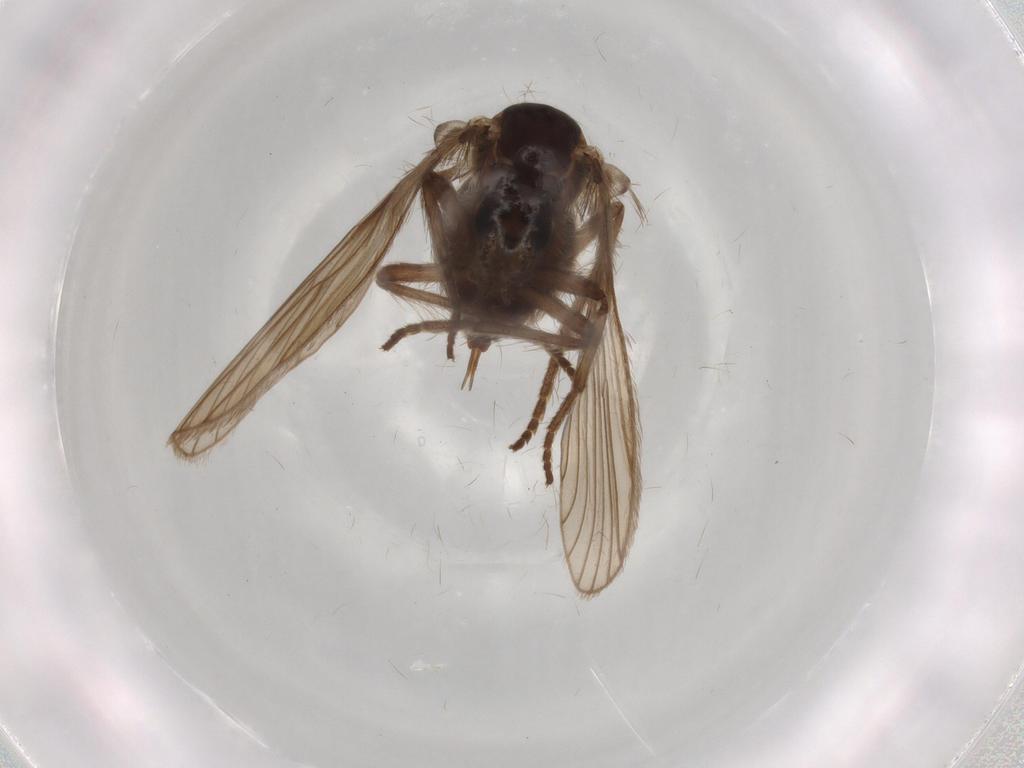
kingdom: Animalia
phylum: Arthropoda
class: Insecta
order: Diptera
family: Psychodidae
